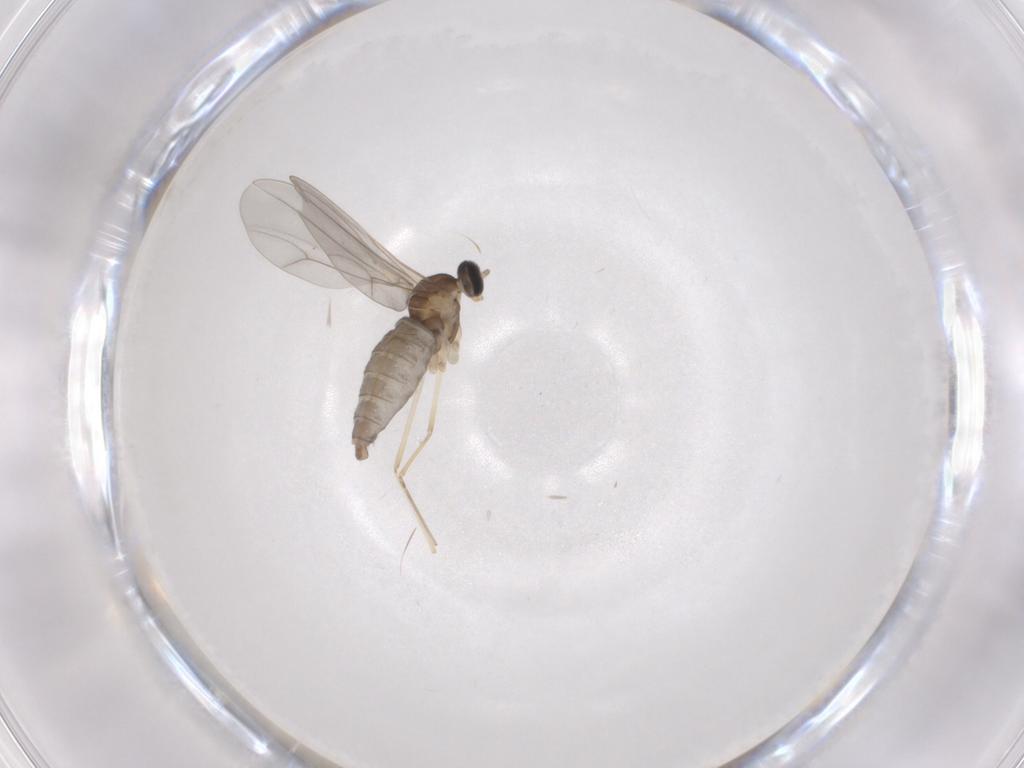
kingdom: Animalia
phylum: Arthropoda
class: Insecta
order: Diptera
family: Cecidomyiidae
